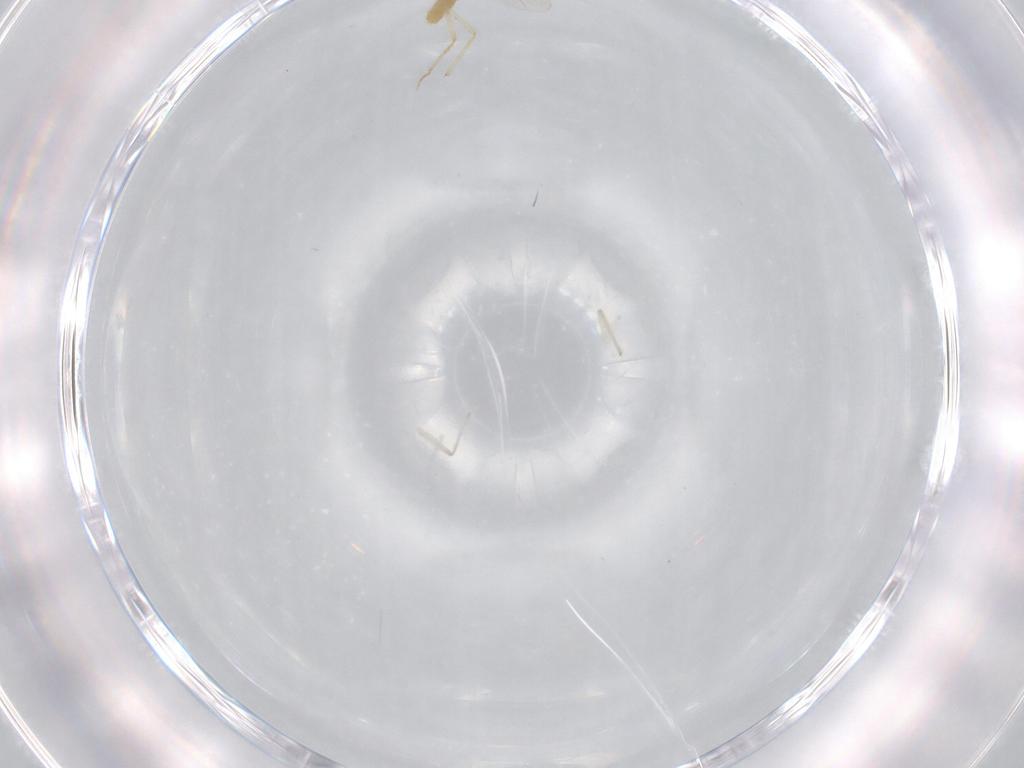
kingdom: Animalia
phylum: Arthropoda
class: Insecta
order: Diptera
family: Chironomidae
